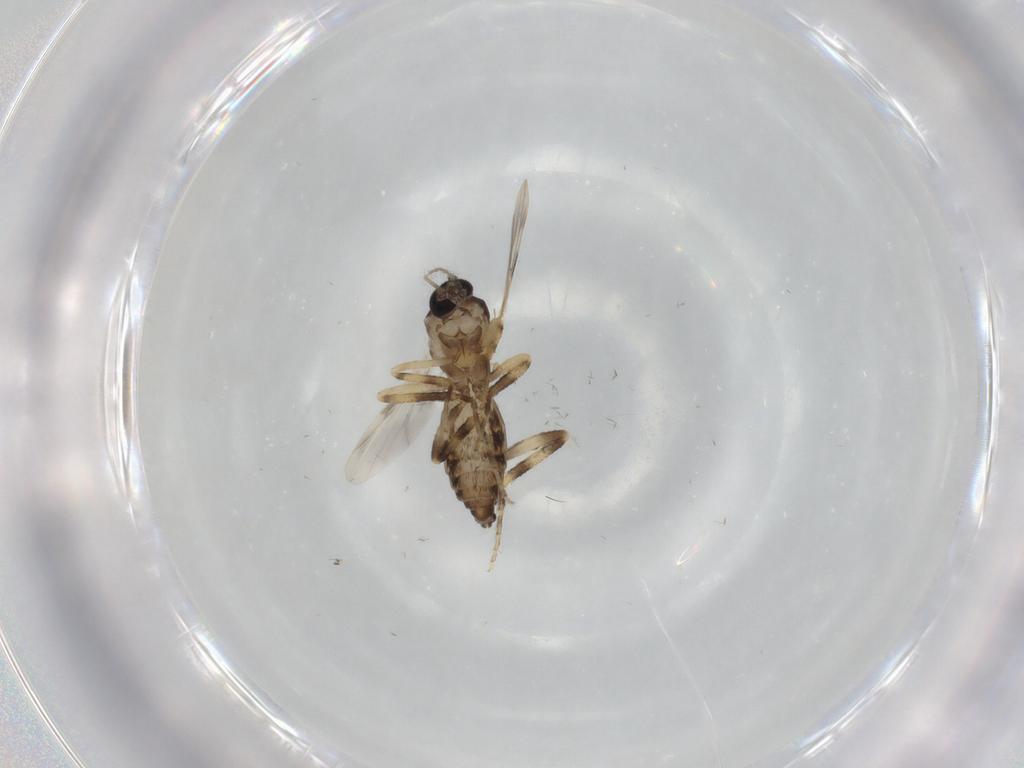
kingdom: Animalia
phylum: Arthropoda
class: Insecta
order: Diptera
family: Ceratopogonidae
